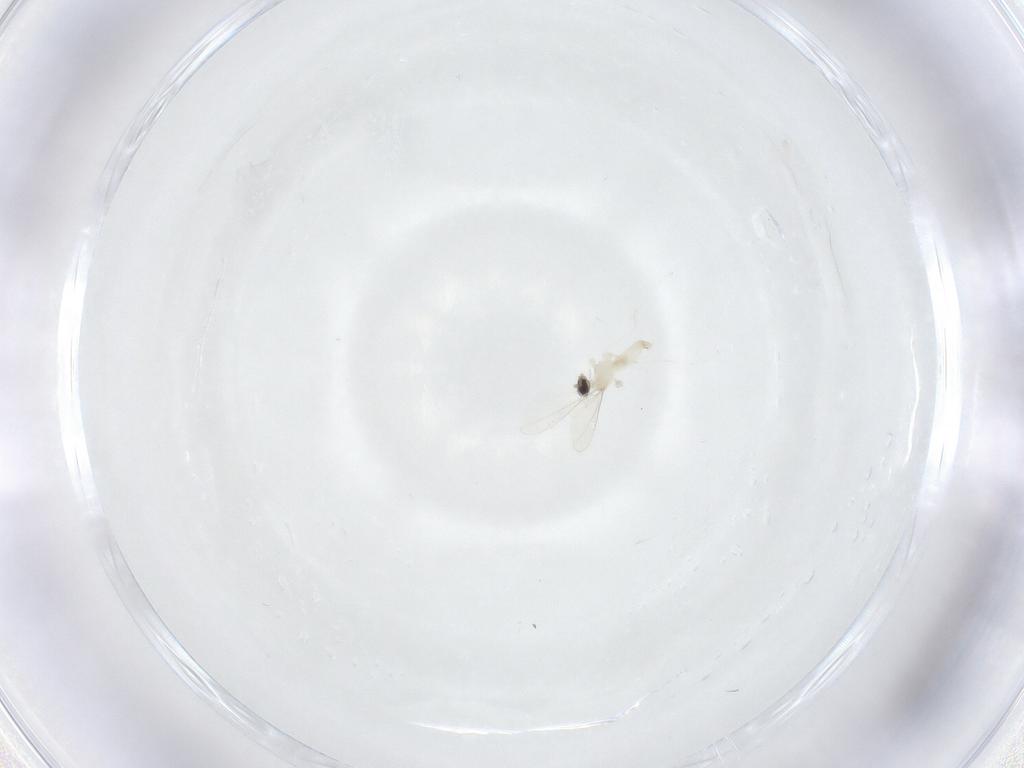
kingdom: Animalia
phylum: Arthropoda
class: Insecta
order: Diptera
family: Cecidomyiidae
